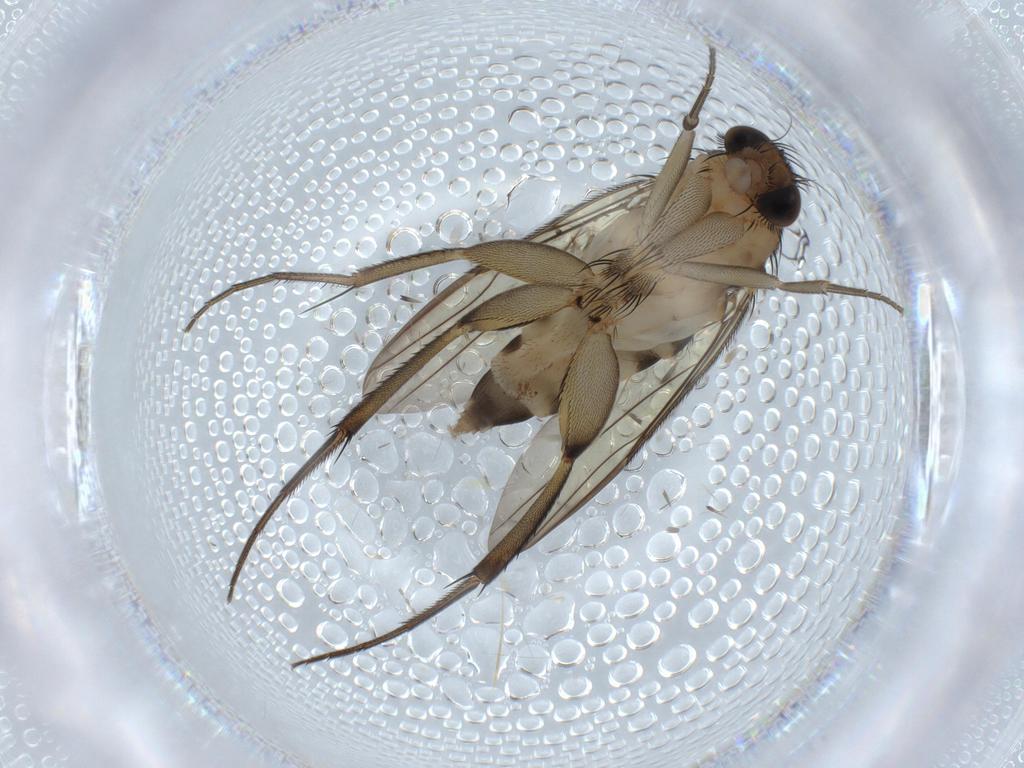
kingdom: Animalia
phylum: Arthropoda
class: Insecta
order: Diptera
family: Phoridae
